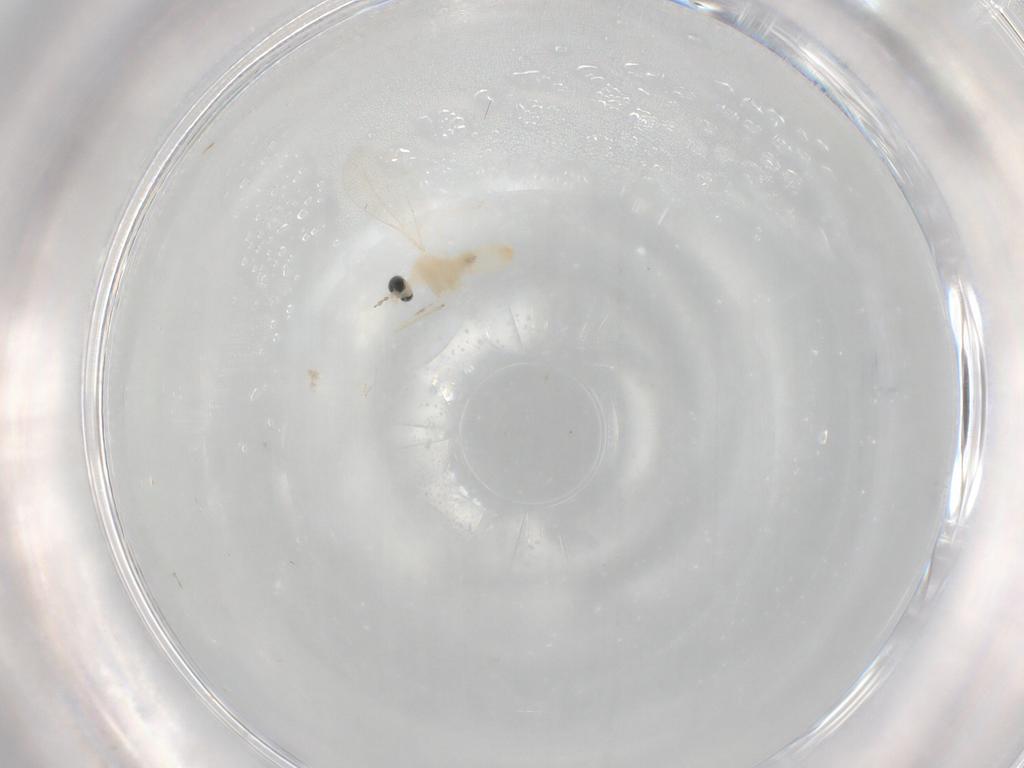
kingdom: Animalia
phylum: Arthropoda
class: Insecta
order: Diptera
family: Cecidomyiidae
